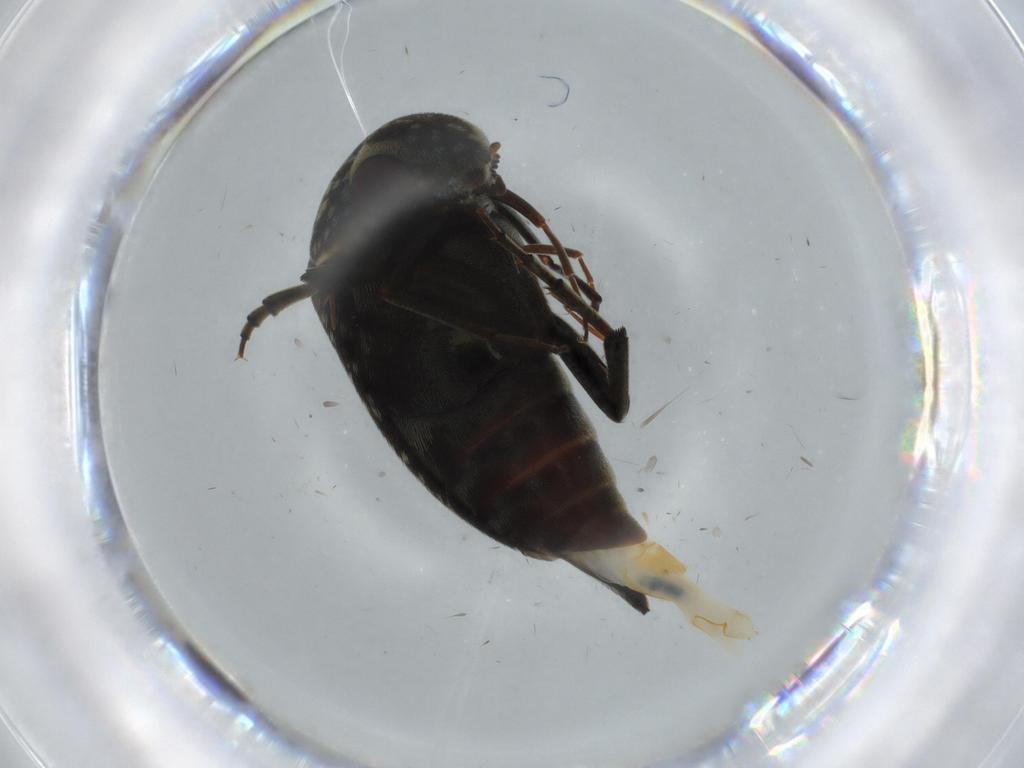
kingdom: Animalia
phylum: Arthropoda
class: Insecta
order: Coleoptera
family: Mordellidae
